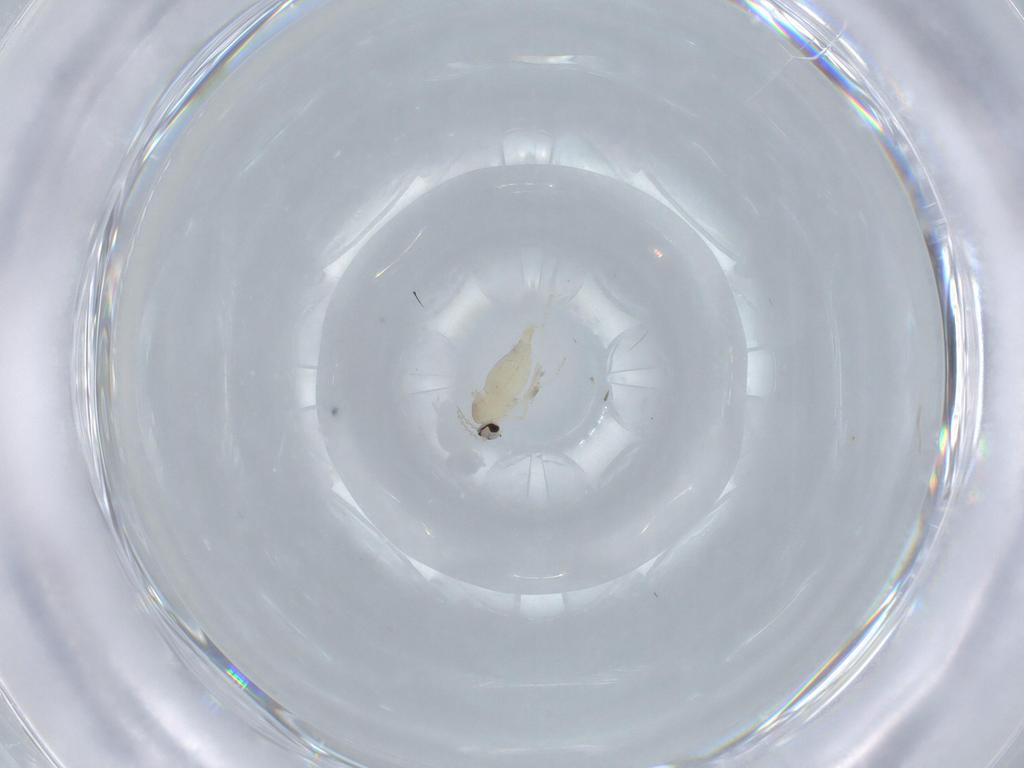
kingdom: Animalia
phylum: Arthropoda
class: Insecta
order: Diptera
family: Cecidomyiidae
